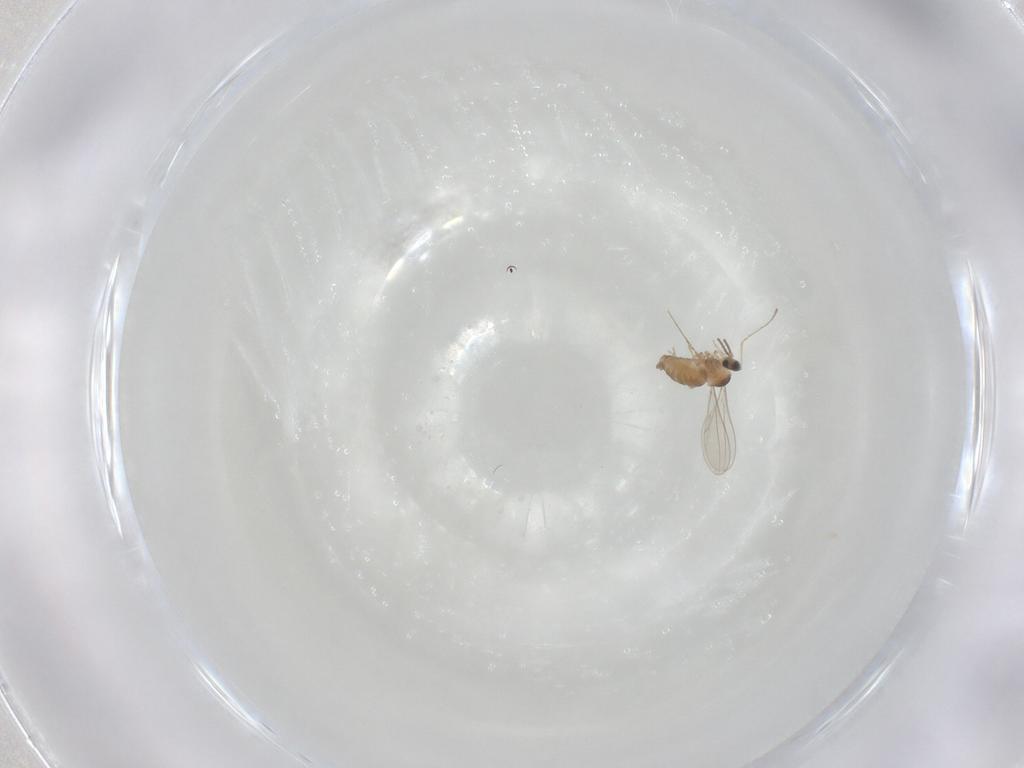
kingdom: Animalia
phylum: Arthropoda
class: Insecta
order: Diptera
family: Cecidomyiidae
